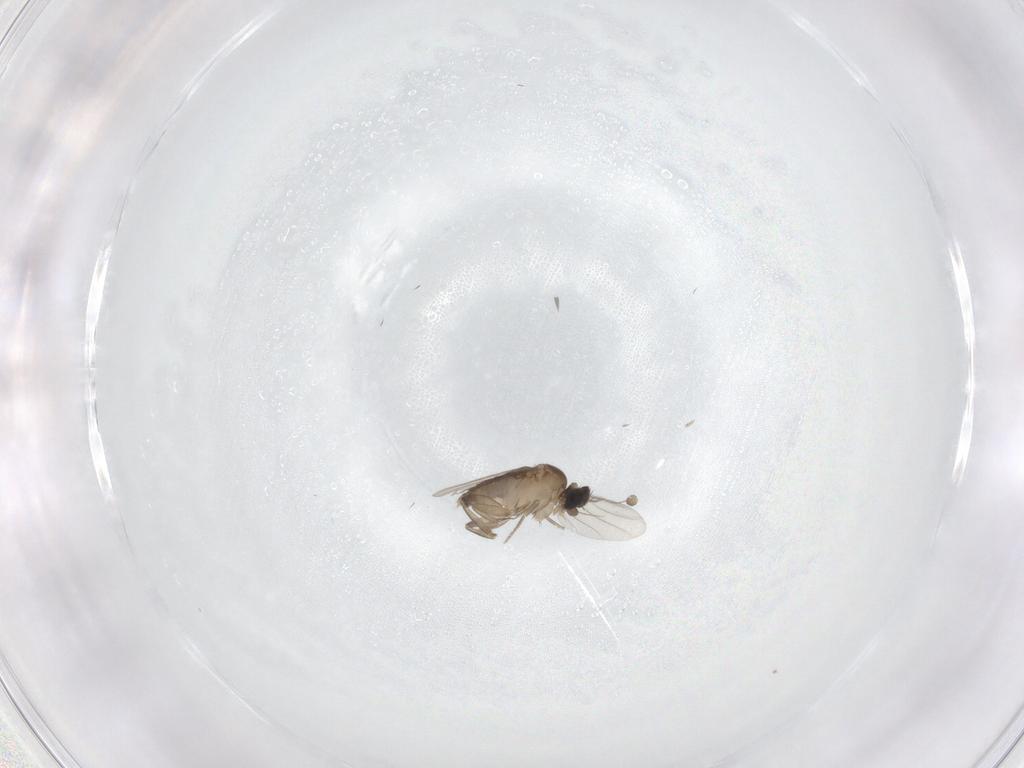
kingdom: Animalia
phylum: Arthropoda
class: Insecta
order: Diptera
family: Phoridae
